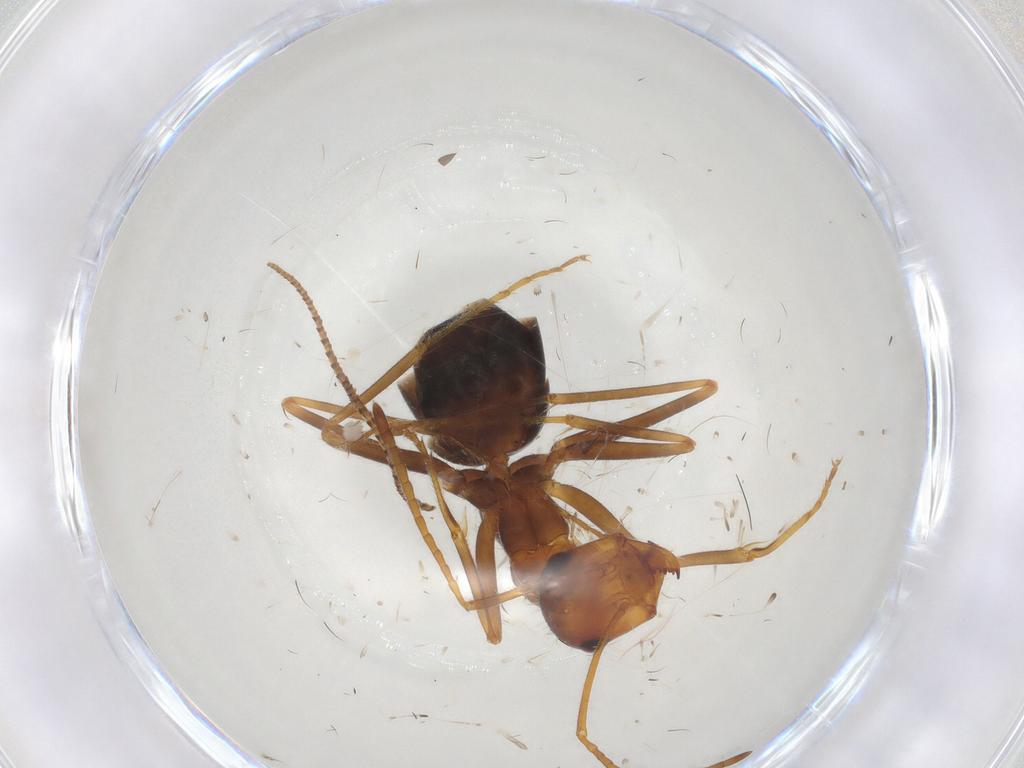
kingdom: Animalia
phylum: Arthropoda
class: Insecta
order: Hymenoptera
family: Formicidae
